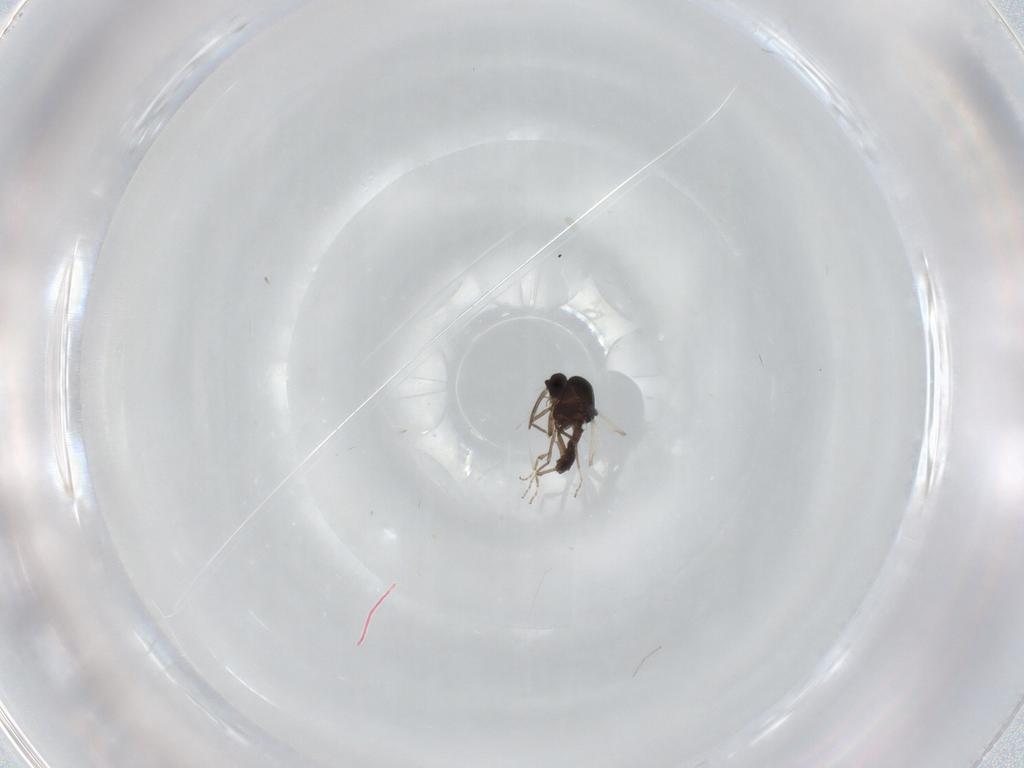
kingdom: Animalia
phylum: Arthropoda
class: Insecta
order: Diptera
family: Ceratopogonidae
